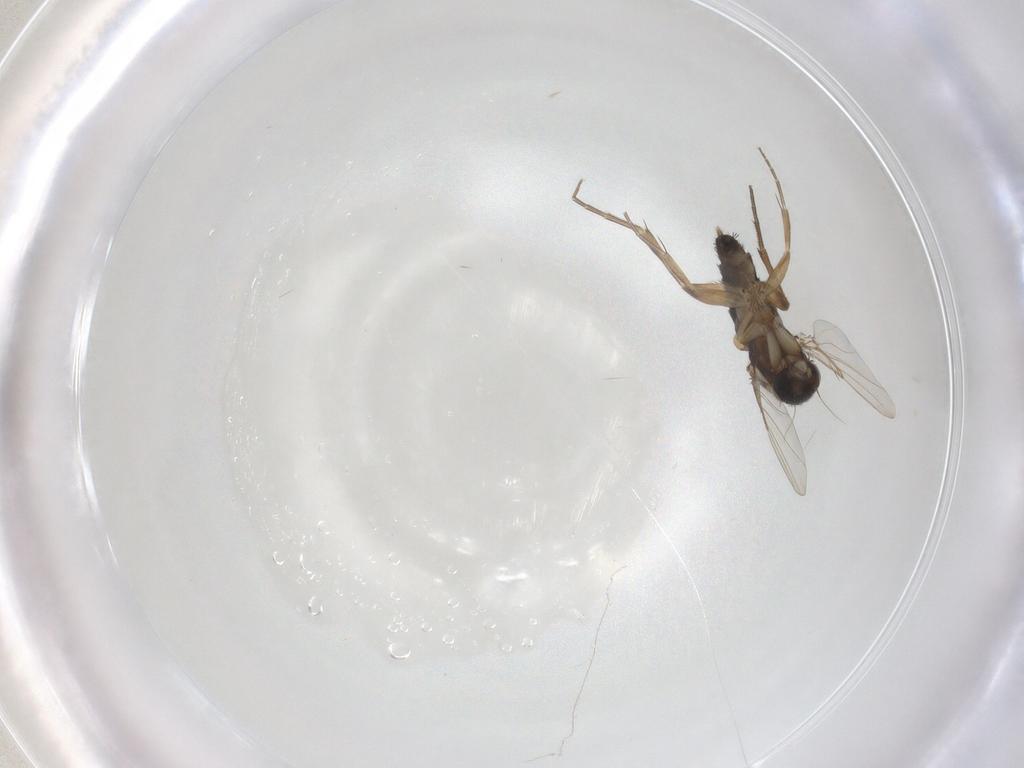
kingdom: Animalia
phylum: Arthropoda
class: Insecta
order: Diptera
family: Phoridae
